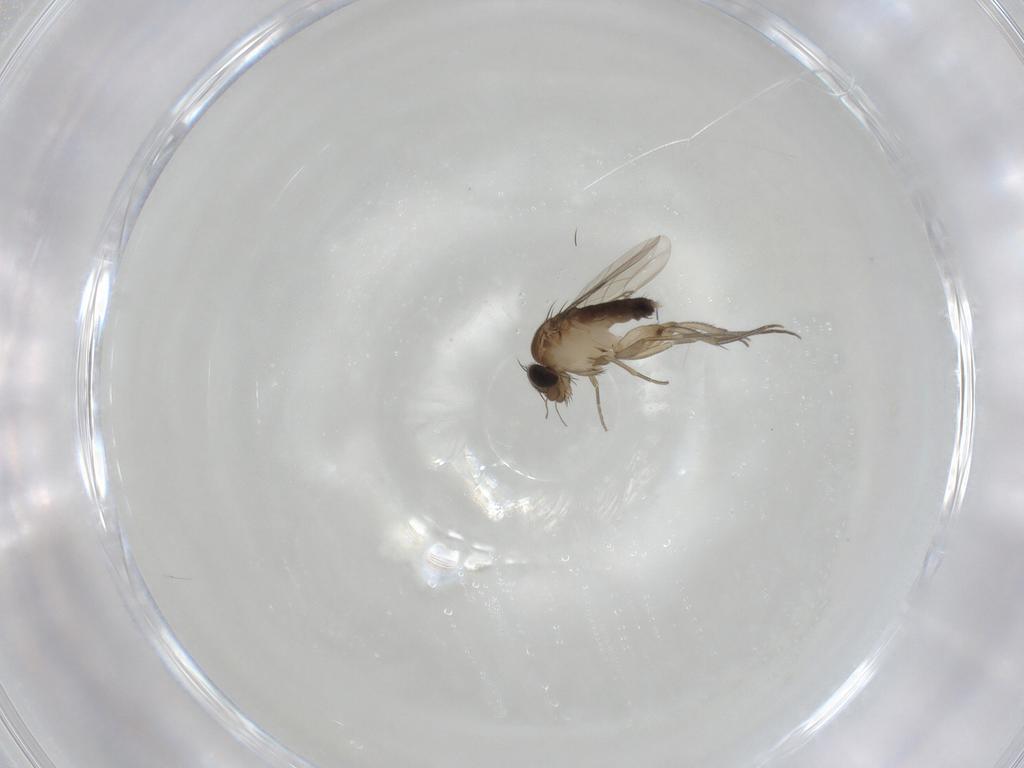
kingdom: Animalia
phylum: Arthropoda
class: Insecta
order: Diptera
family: Phoridae
